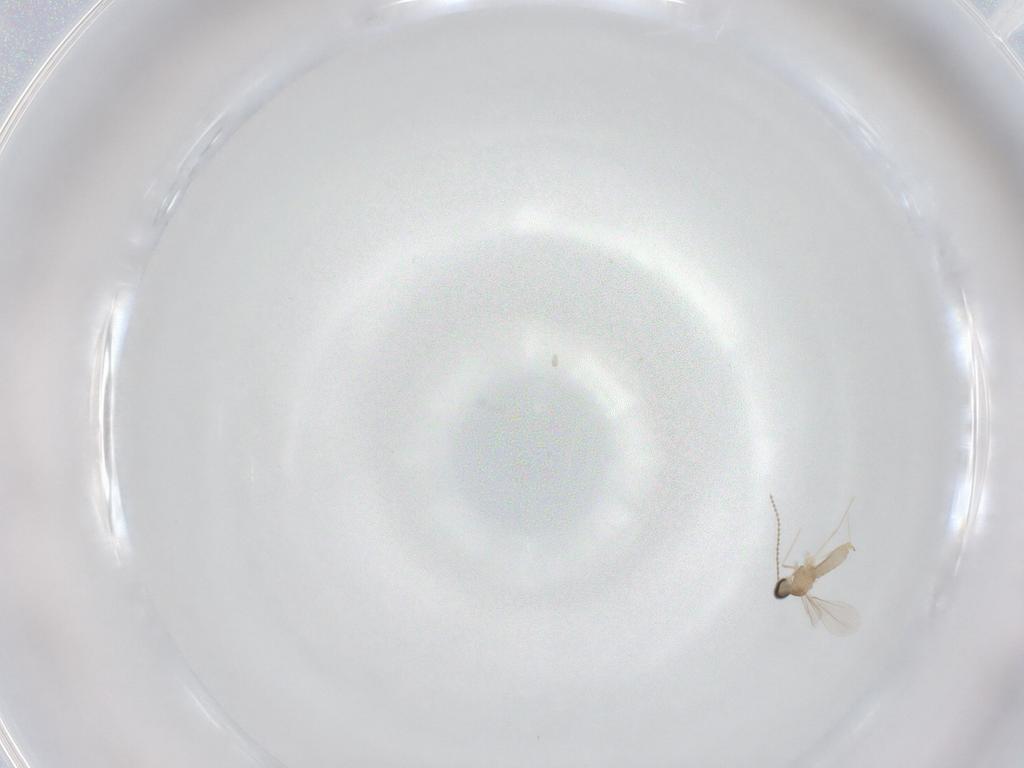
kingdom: Animalia
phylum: Arthropoda
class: Insecta
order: Diptera
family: Cecidomyiidae
